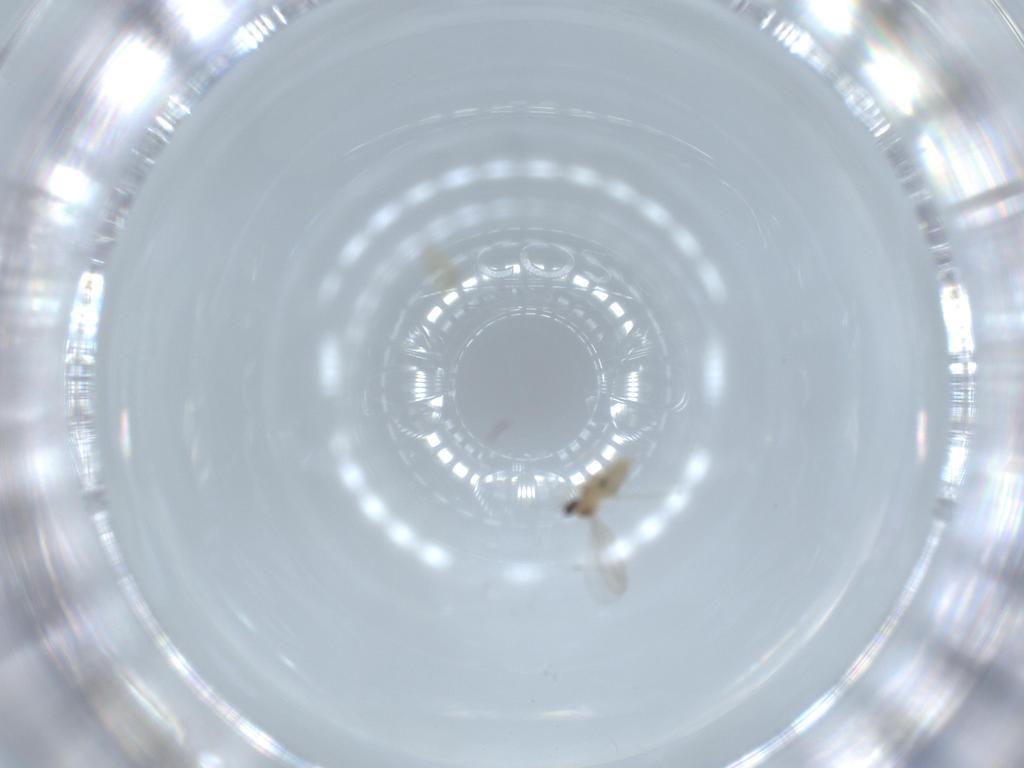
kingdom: Animalia
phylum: Arthropoda
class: Insecta
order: Diptera
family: Cecidomyiidae
